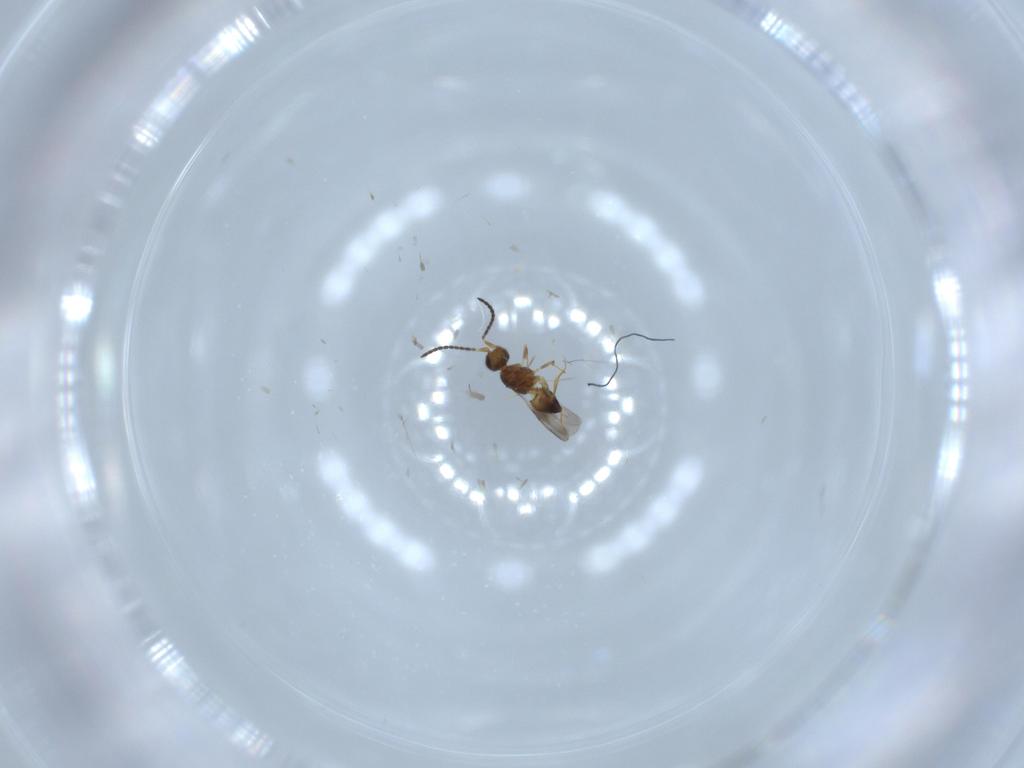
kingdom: Animalia
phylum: Arthropoda
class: Insecta
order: Hymenoptera
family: Ceraphronidae
